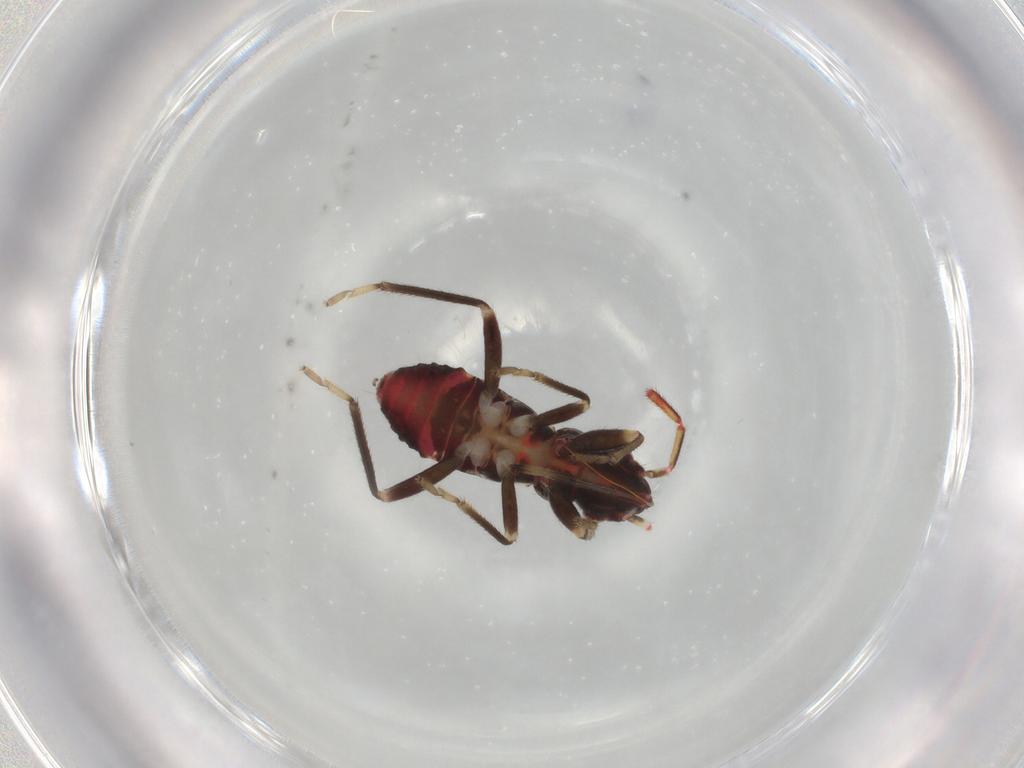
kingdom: Animalia
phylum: Arthropoda
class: Insecta
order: Hemiptera
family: Rhyparochromidae
